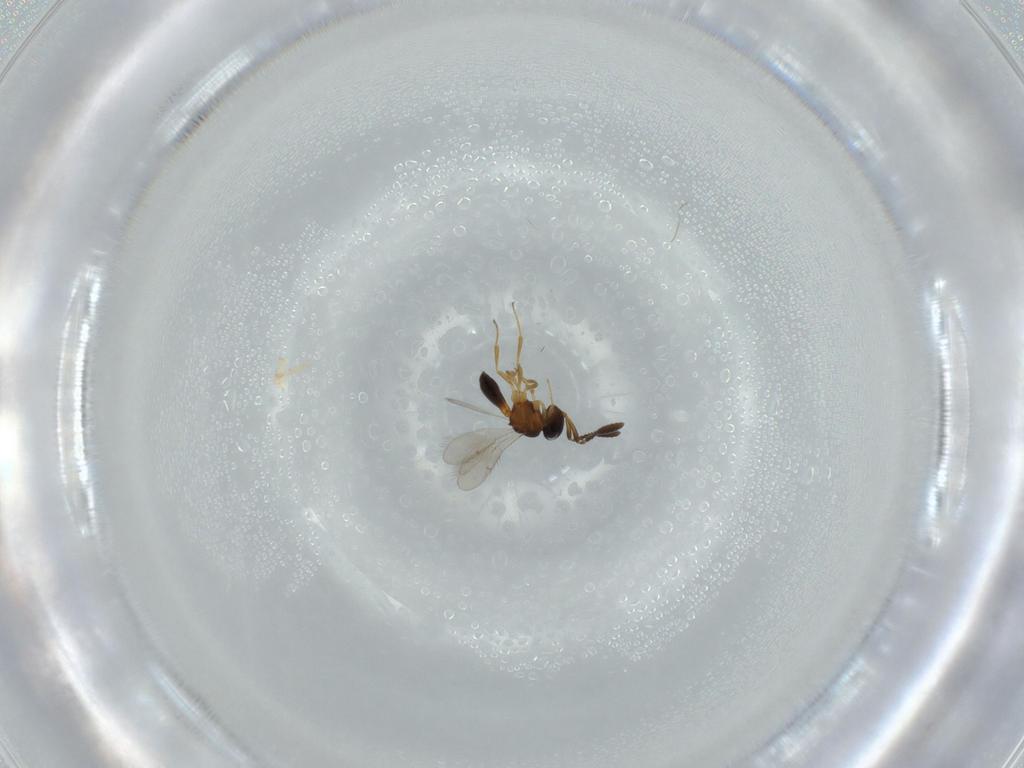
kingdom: Animalia
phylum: Arthropoda
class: Insecta
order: Hymenoptera
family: Scelionidae
